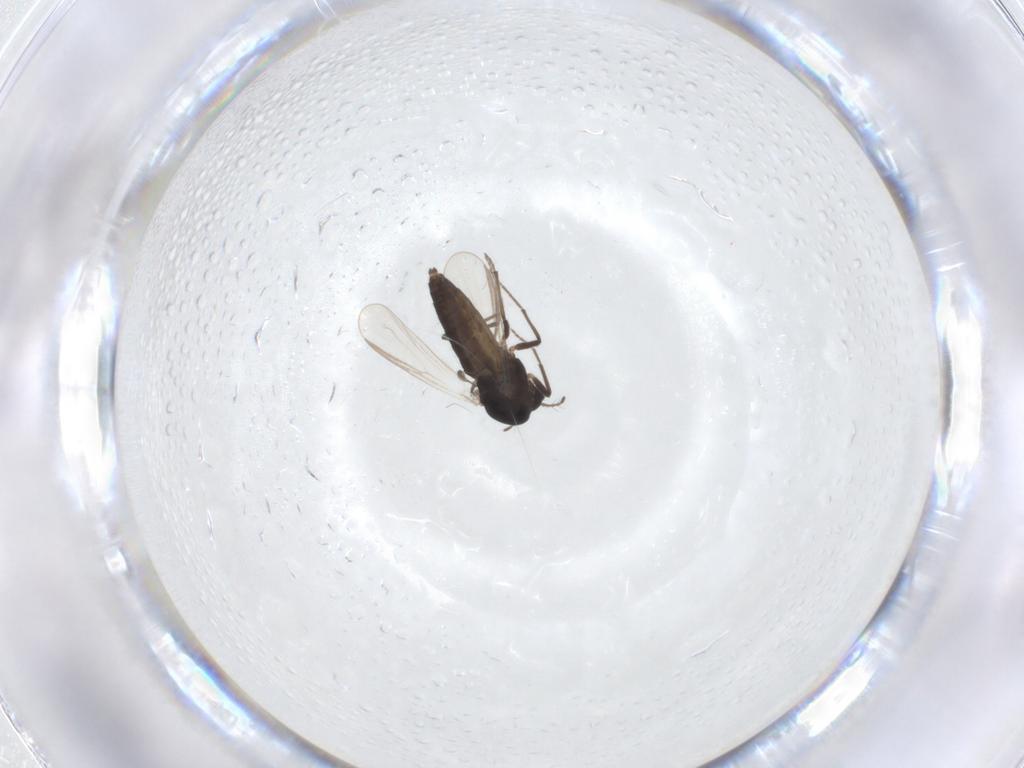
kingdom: Animalia
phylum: Arthropoda
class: Insecta
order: Diptera
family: Chironomidae
